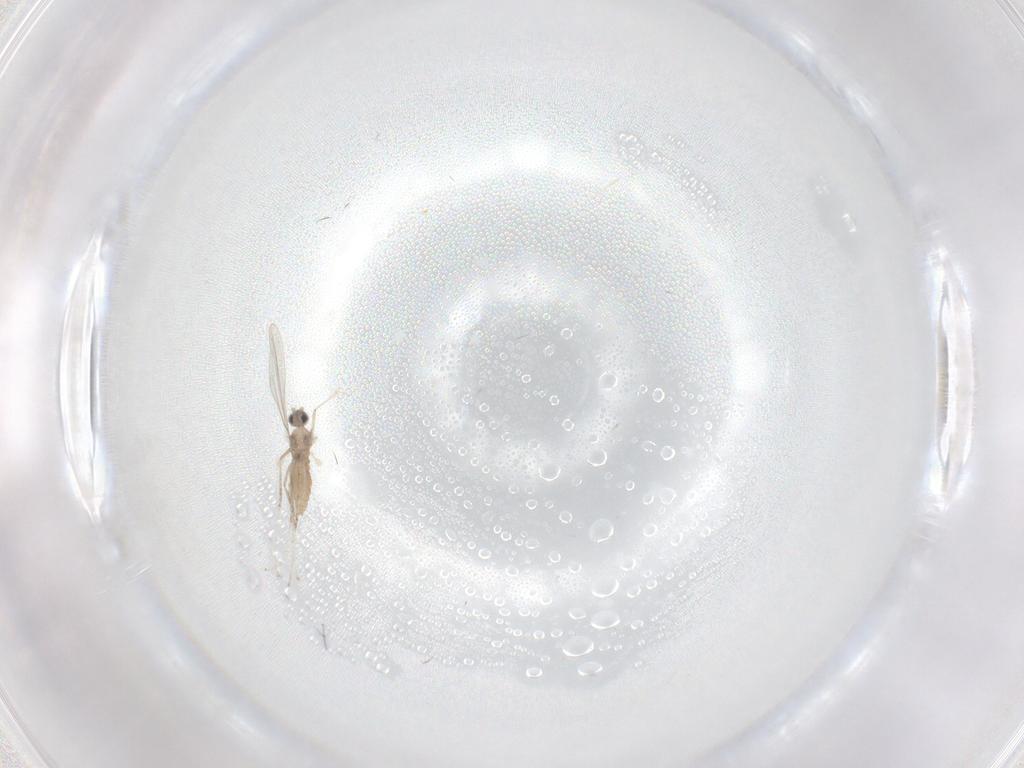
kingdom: Animalia
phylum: Arthropoda
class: Insecta
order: Diptera
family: Cecidomyiidae
